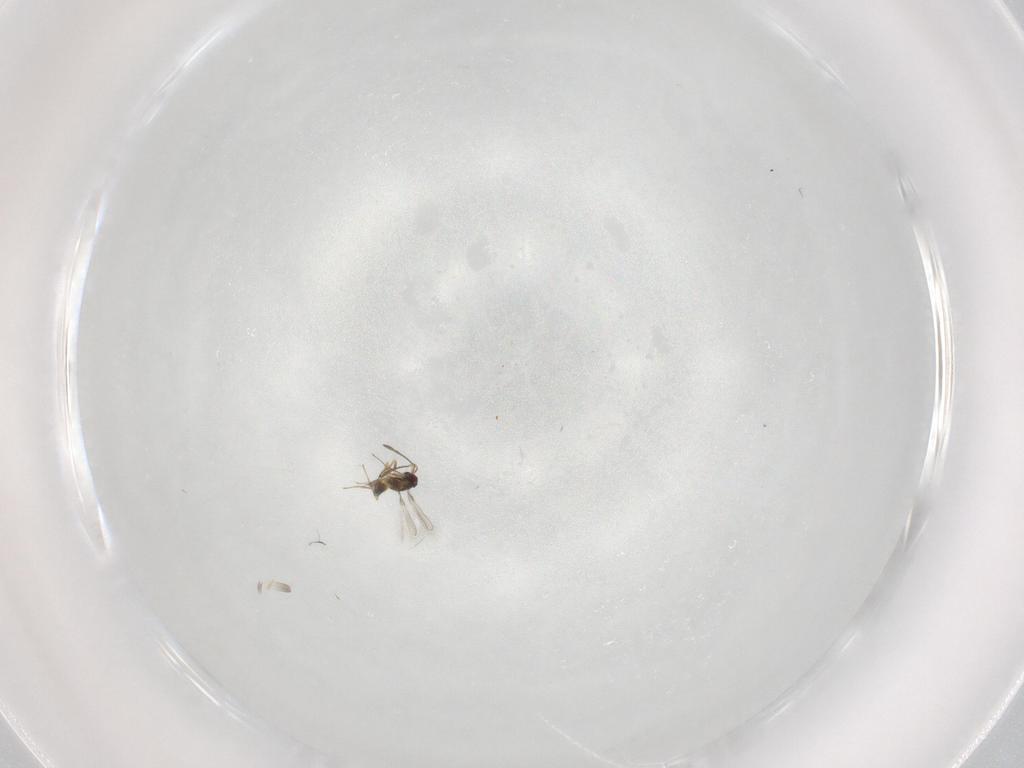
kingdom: Animalia
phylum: Arthropoda
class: Insecta
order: Hymenoptera
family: Mymaridae
